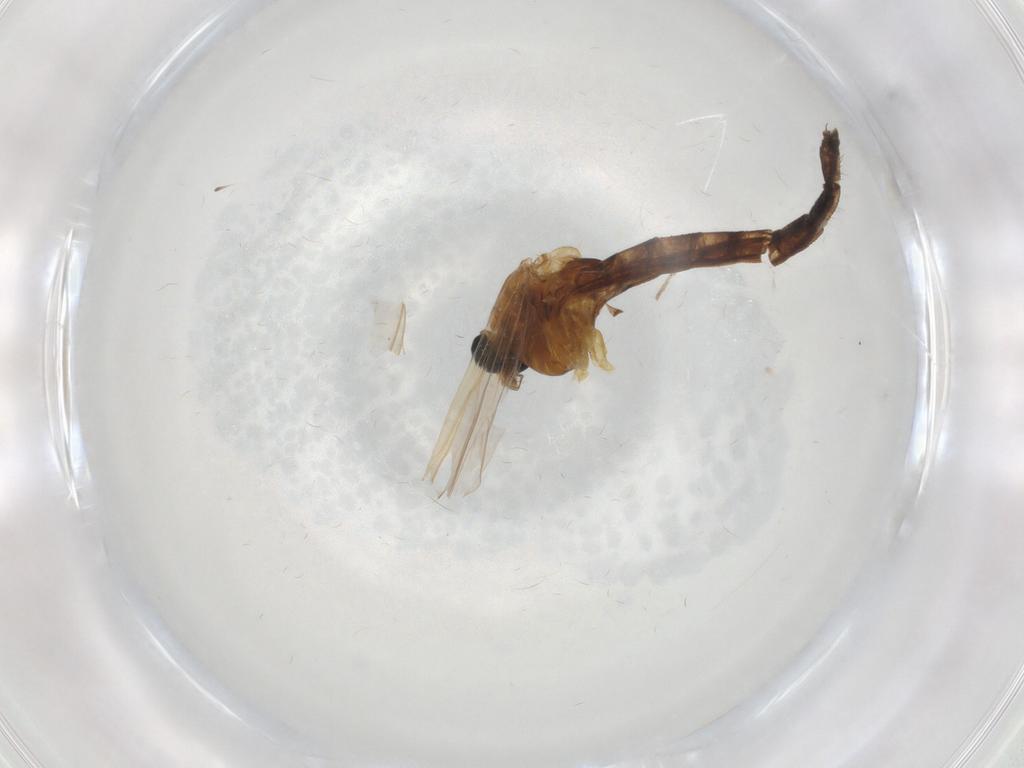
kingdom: Animalia
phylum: Arthropoda
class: Insecta
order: Diptera
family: Chironomidae
